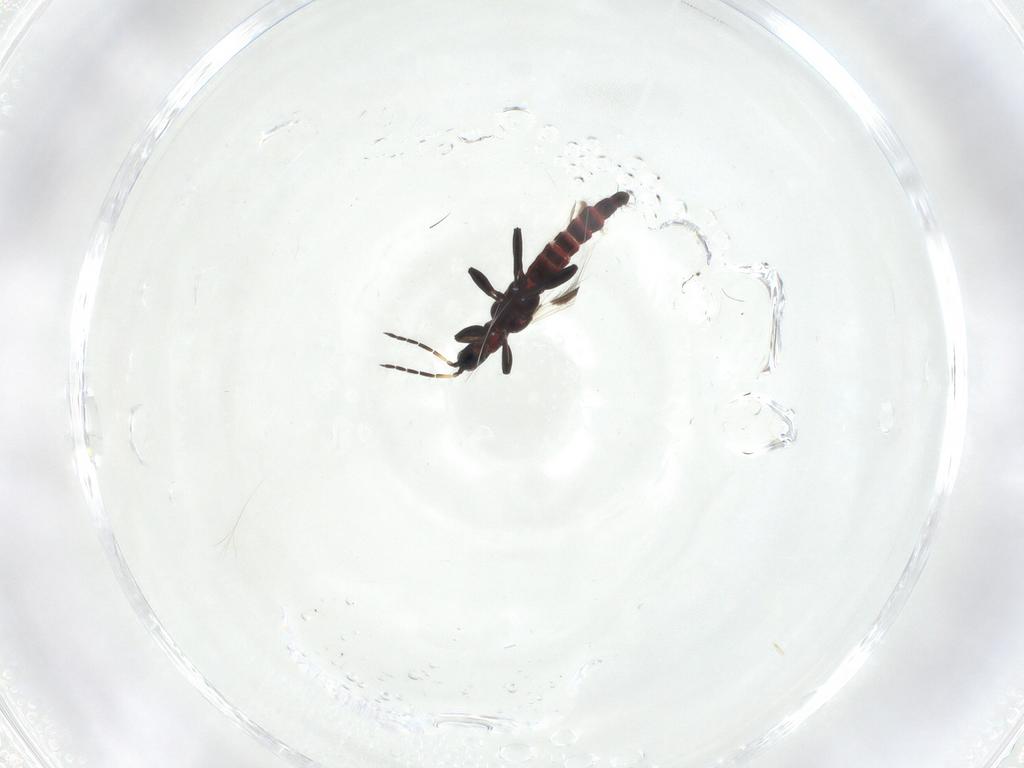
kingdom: Animalia
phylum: Arthropoda
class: Insecta
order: Thysanoptera
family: Aeolothripidae
